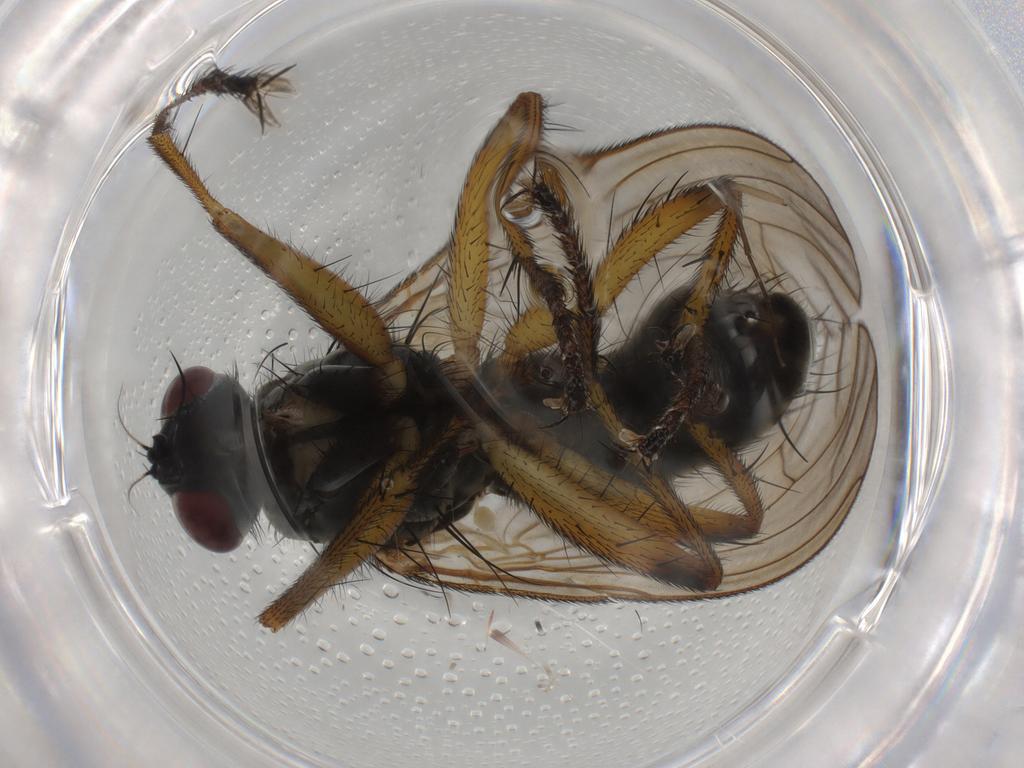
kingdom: Animalia
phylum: Arthropoda
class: Insecta
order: Diptera
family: Muscidae
